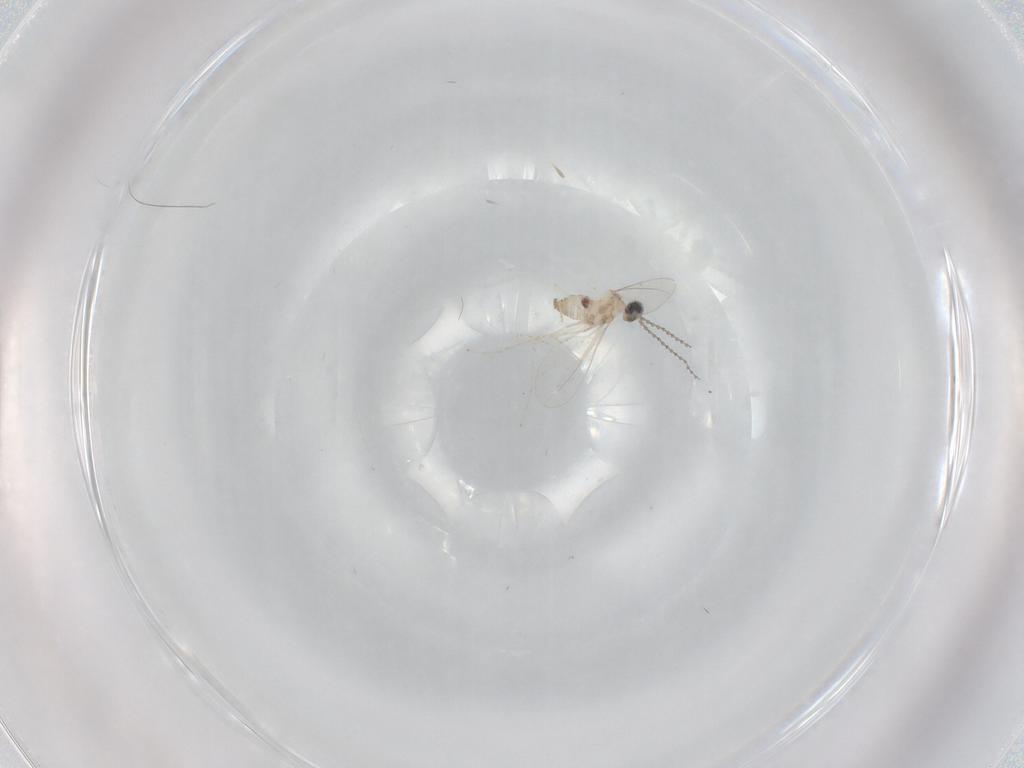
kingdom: Animalia
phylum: Arthropoda
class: Insecta
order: Diptera
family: Cecidomyiidae
